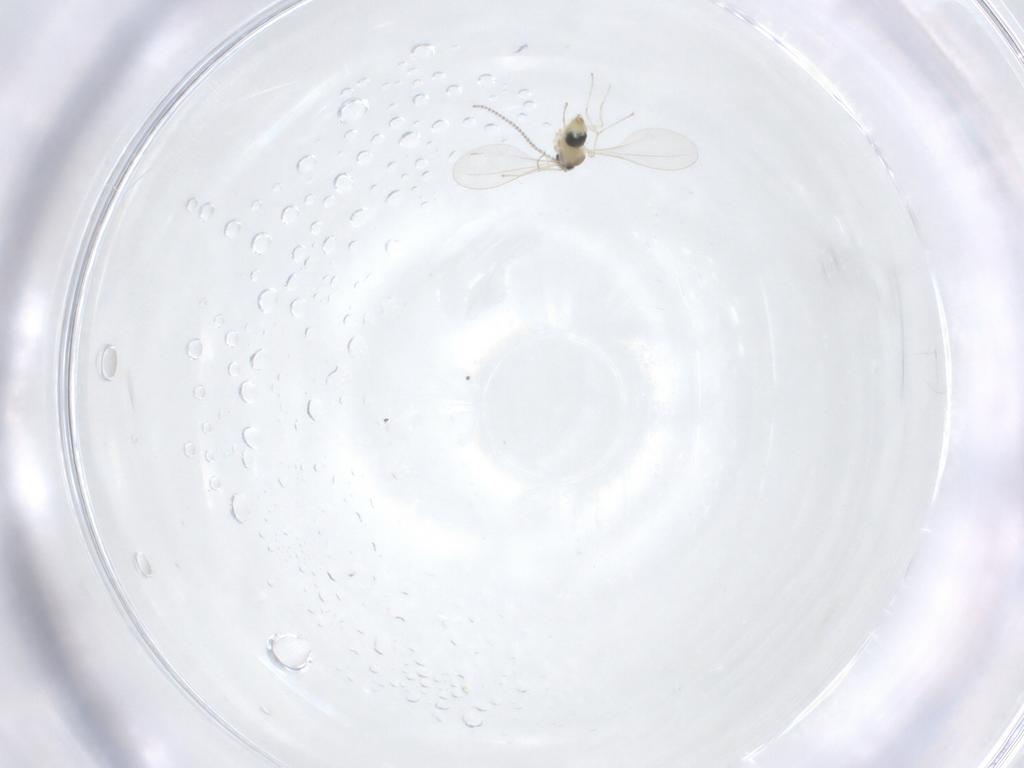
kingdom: Animalia
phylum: Arthropoda
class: Insecta
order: Diptera
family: Cecidomyiidae
